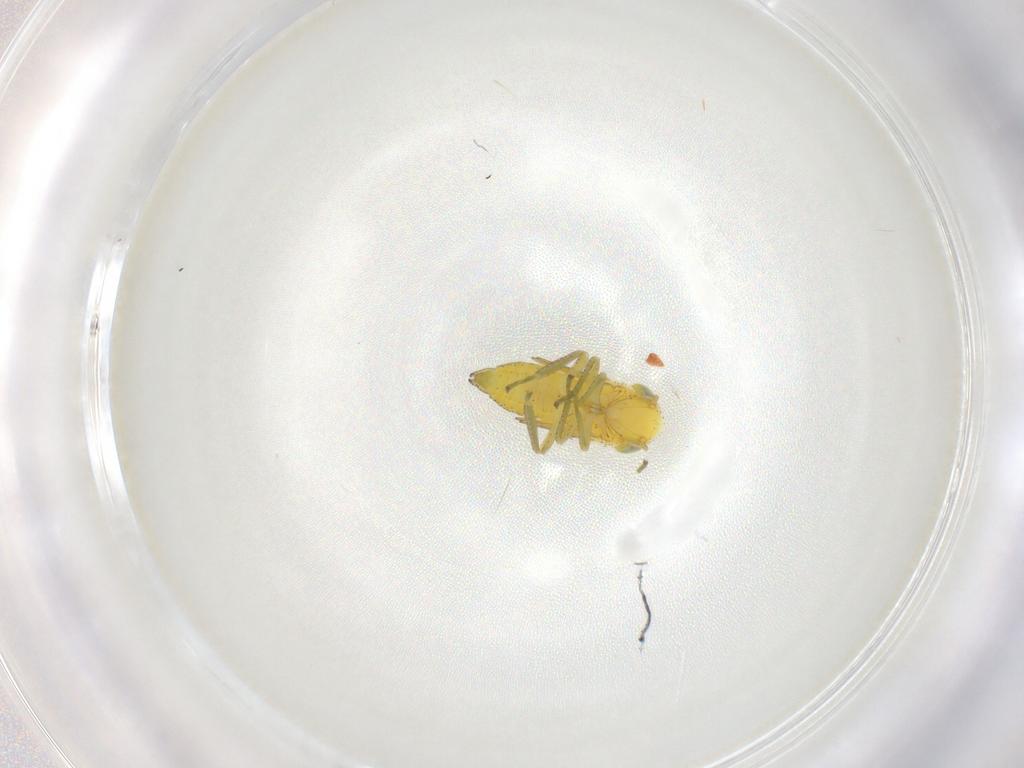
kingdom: Animalia
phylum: Arthropoda
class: Insecta
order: Hemiptera
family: Cicadellidae
